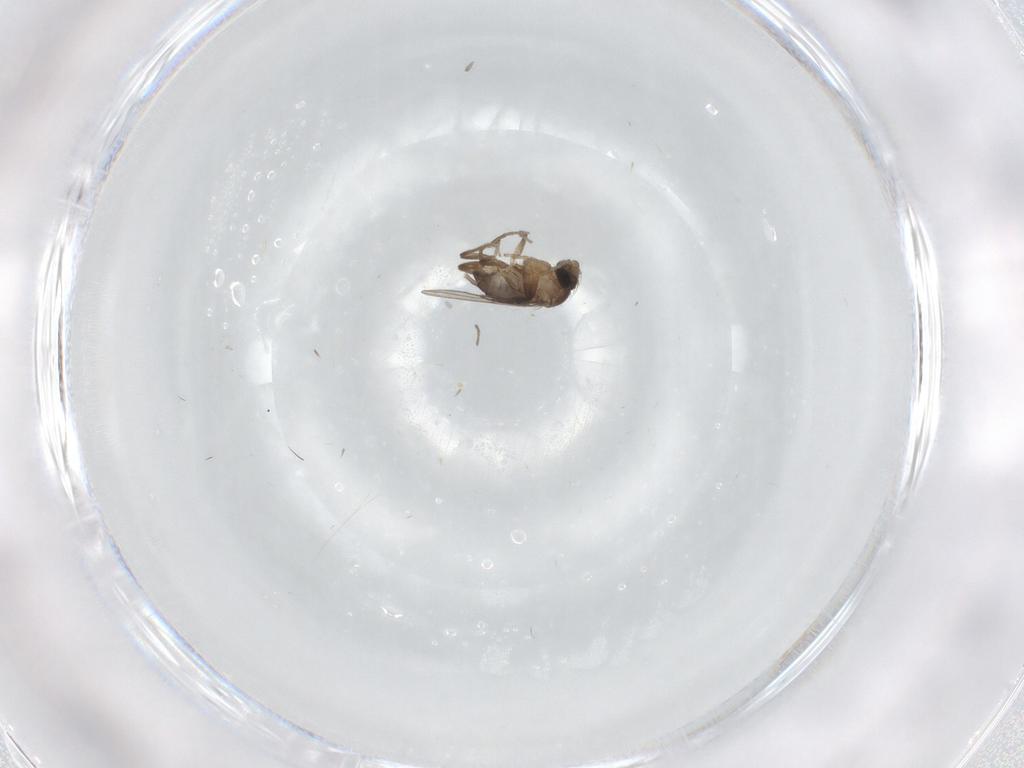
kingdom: Animalia
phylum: Arthropoda
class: Insecta
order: Diptera
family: Phoridae
